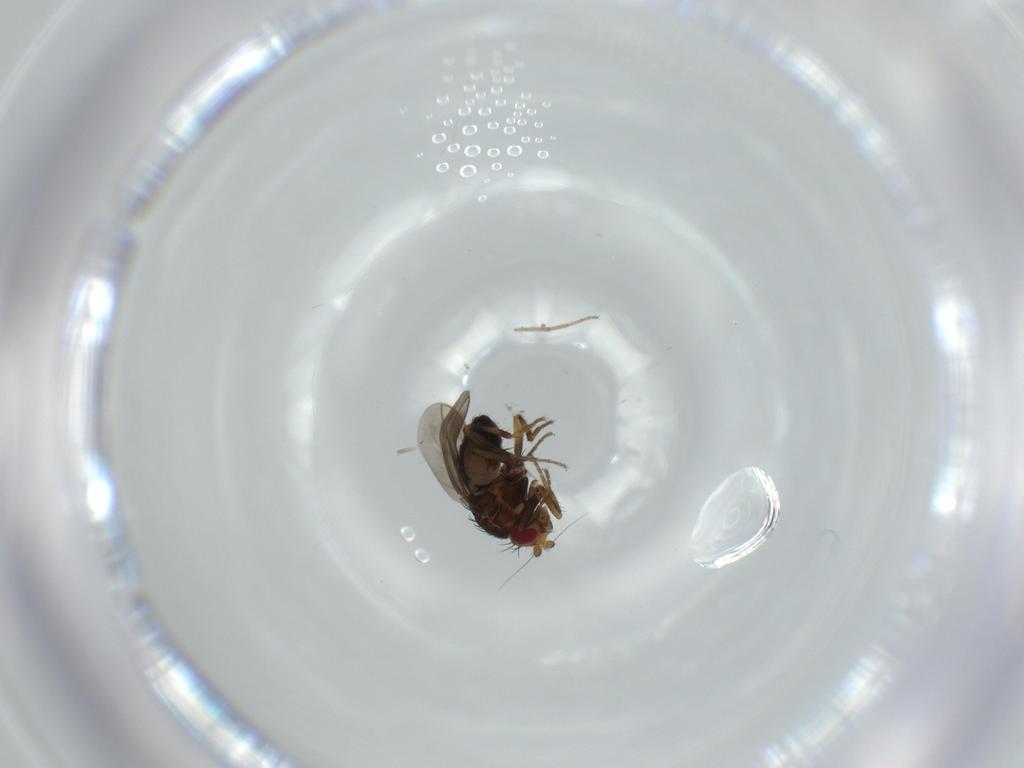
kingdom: Animalia
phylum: Arthropoda
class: Insecta
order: Diptera
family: Sciaridae
